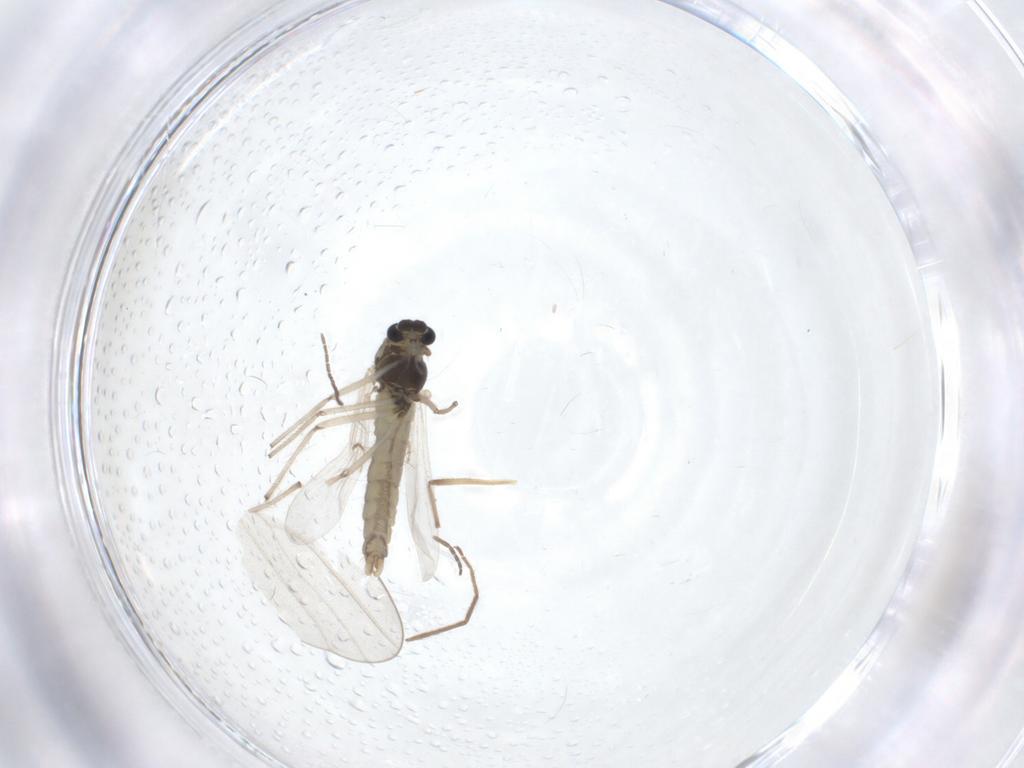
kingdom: Animalia
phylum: Arthropoda
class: Insecta
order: Diptera
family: Chironomidae
